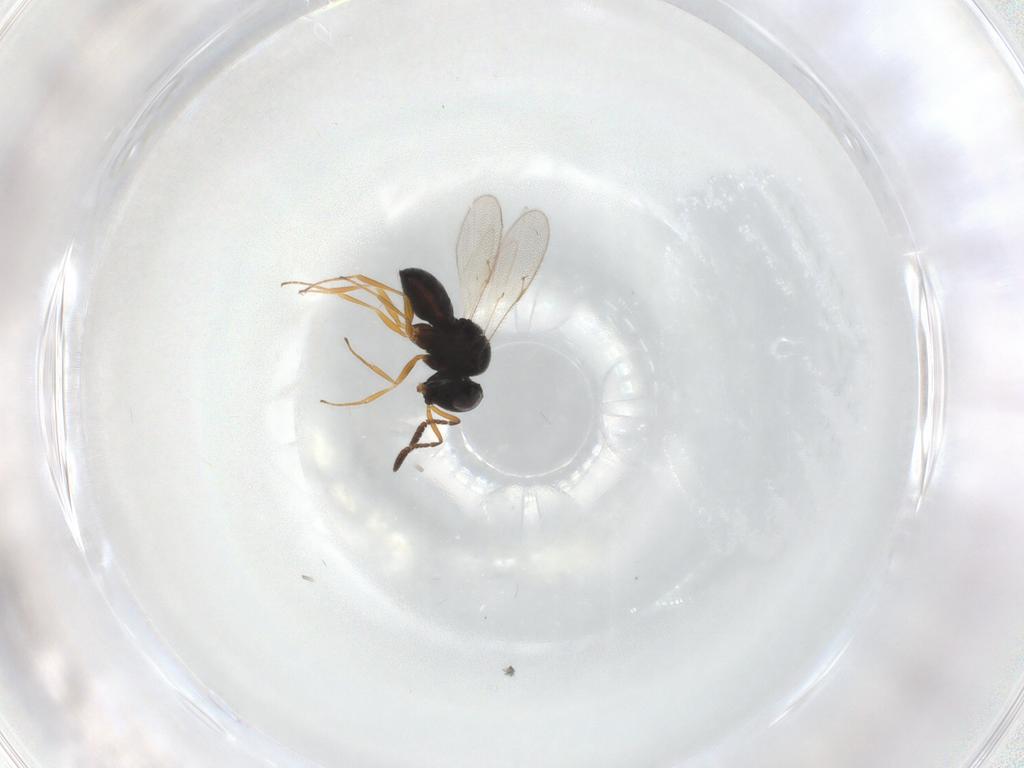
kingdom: Animalia
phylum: Arthropoda
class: Insecta
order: Hymenoptera
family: Scelionidae
